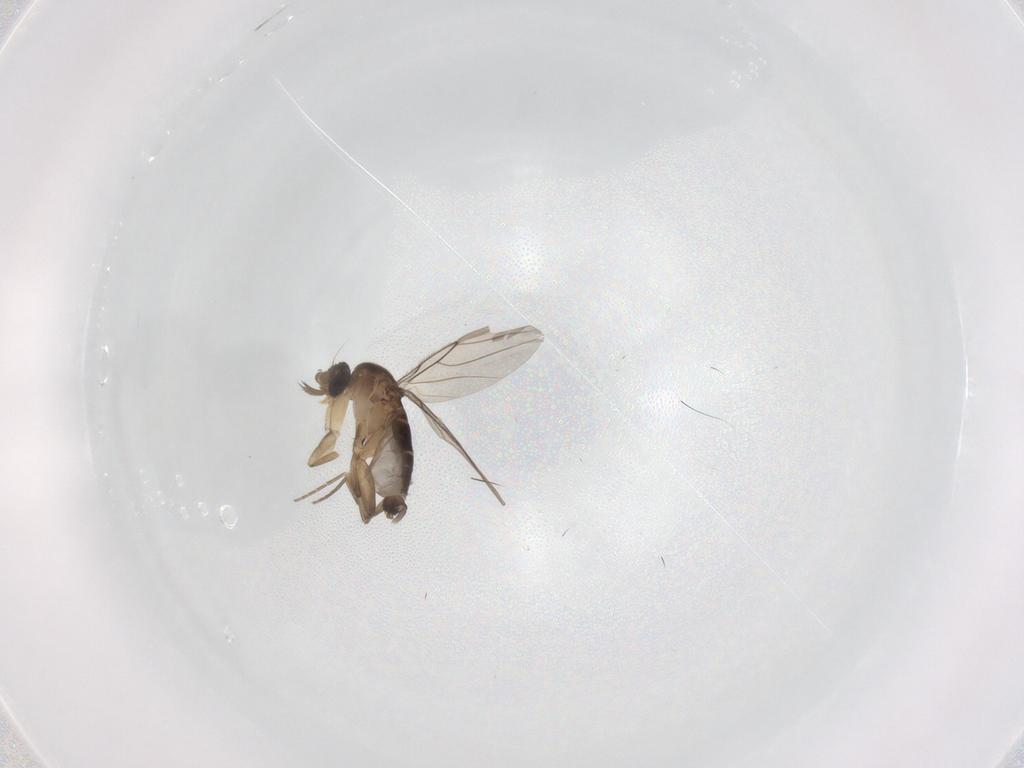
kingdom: Animalia
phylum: Arthropoda
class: Insecta
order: Diptera
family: Phoridae
